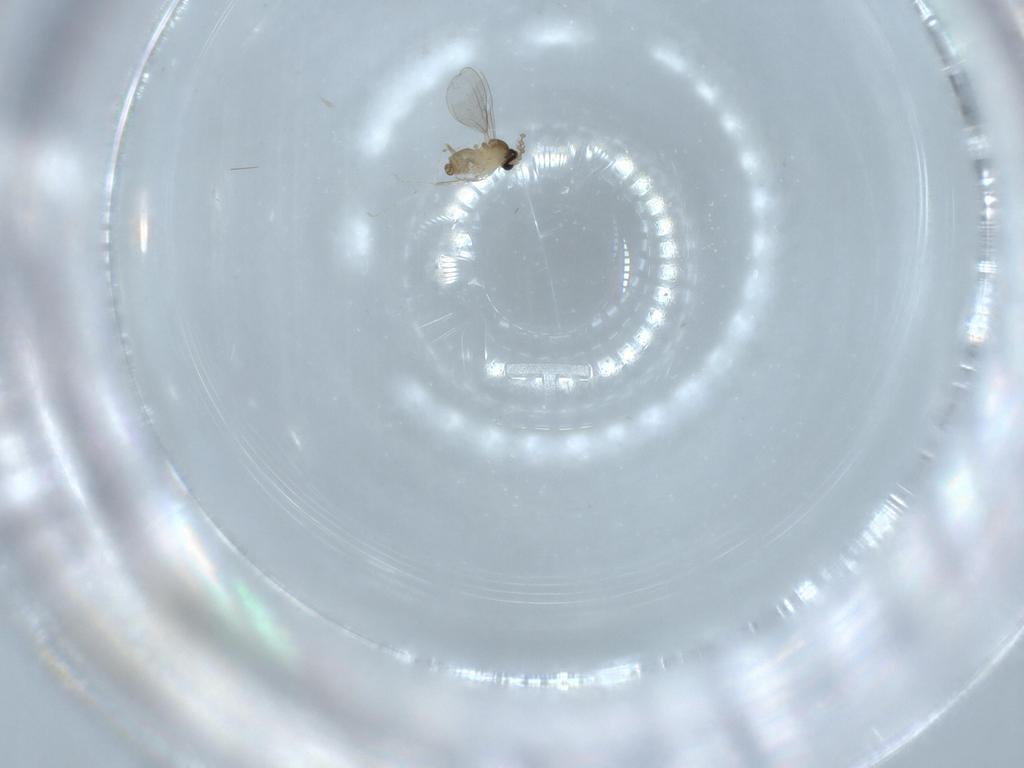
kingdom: Animalia
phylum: Arthropoda
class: Insecta
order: Diptera
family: Cecidomyiidae
